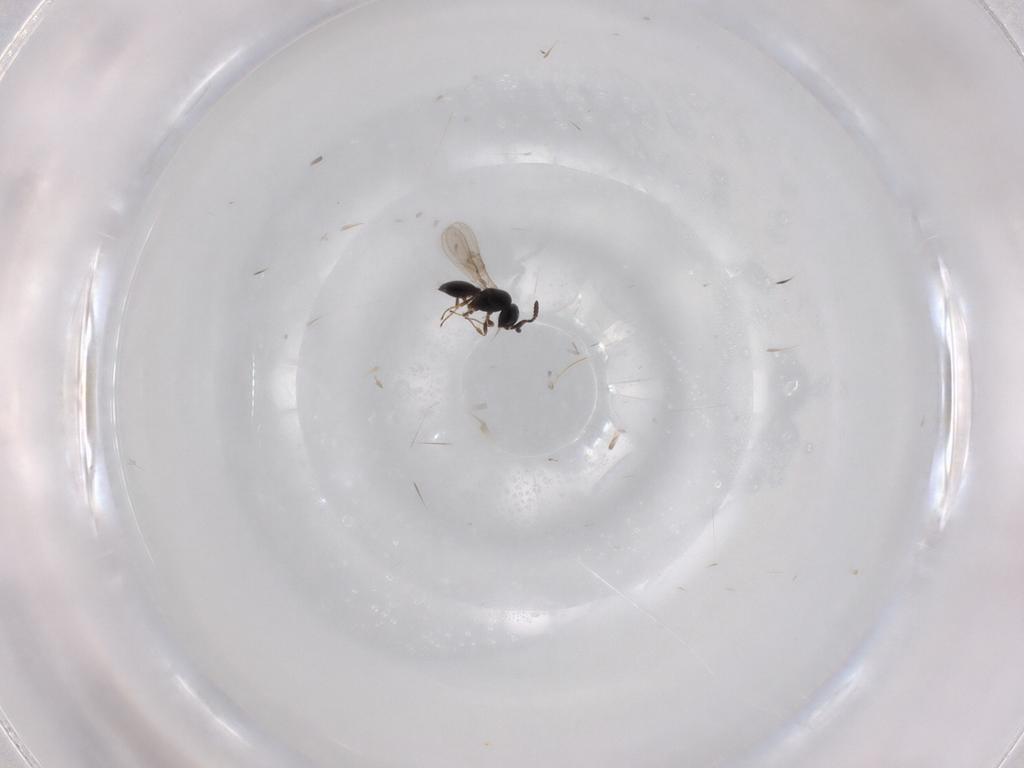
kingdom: Animalia
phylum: Arthropoda
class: Insecta
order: Hymenoptera
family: Scelionidae
